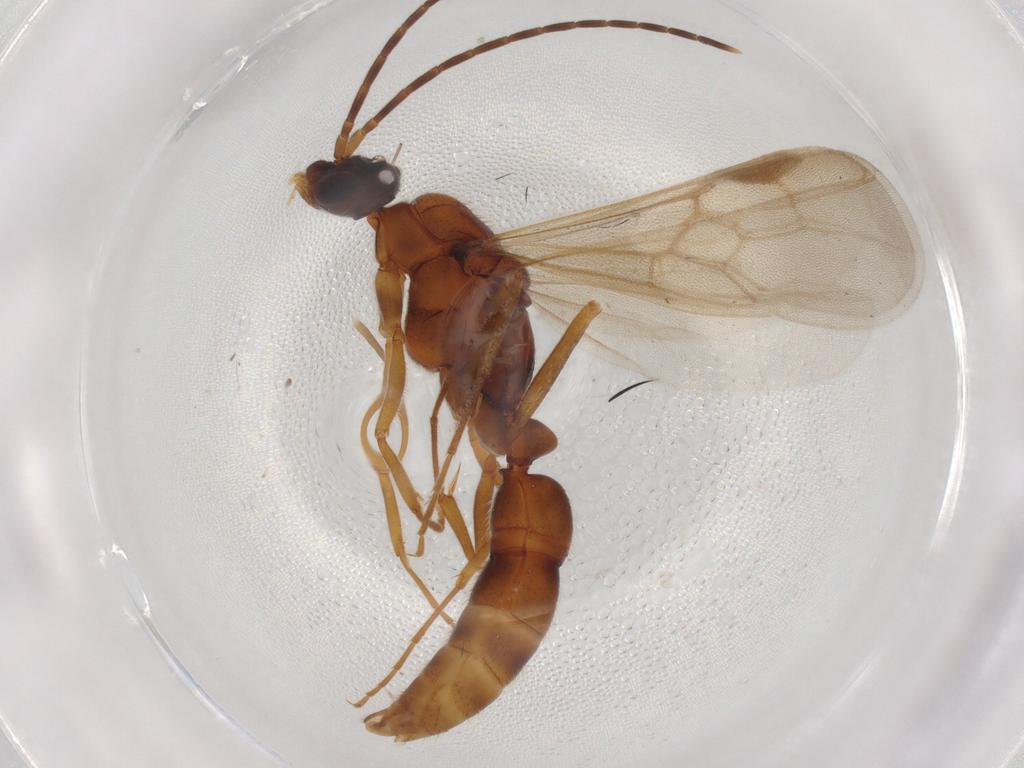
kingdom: Animalia
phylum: Arthropoda
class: Insecta
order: Hymenoptera
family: Formicidae
